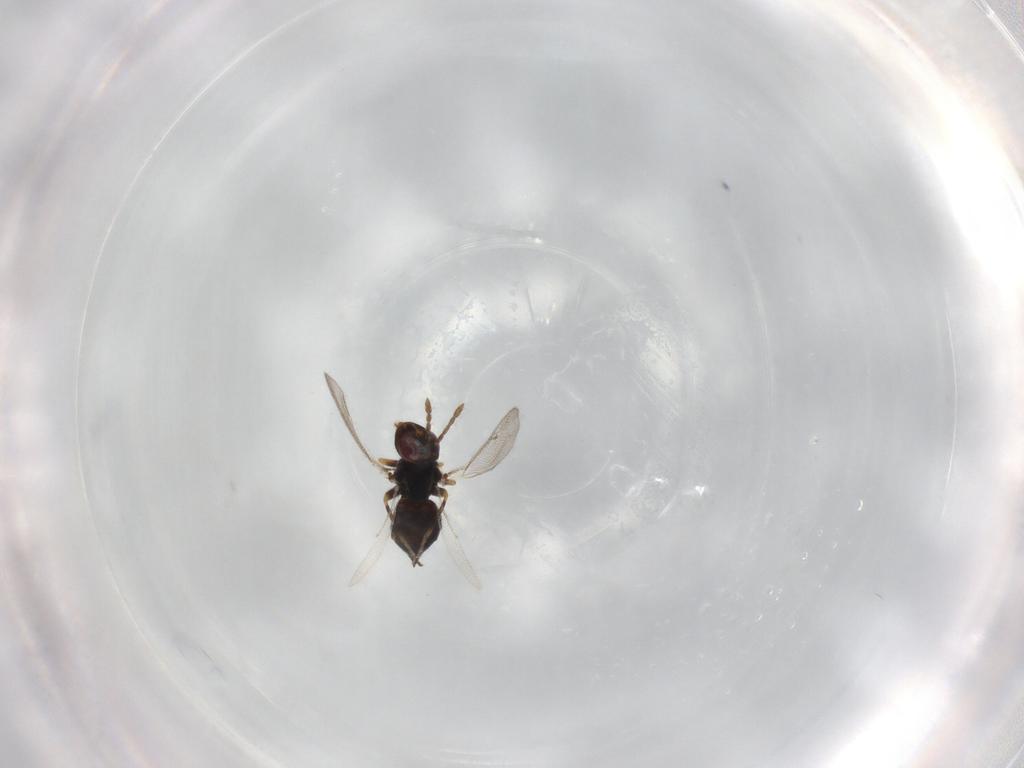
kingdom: Animalia
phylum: Arthropoda
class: Insecta
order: Hymenoptera
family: Eulophidae
